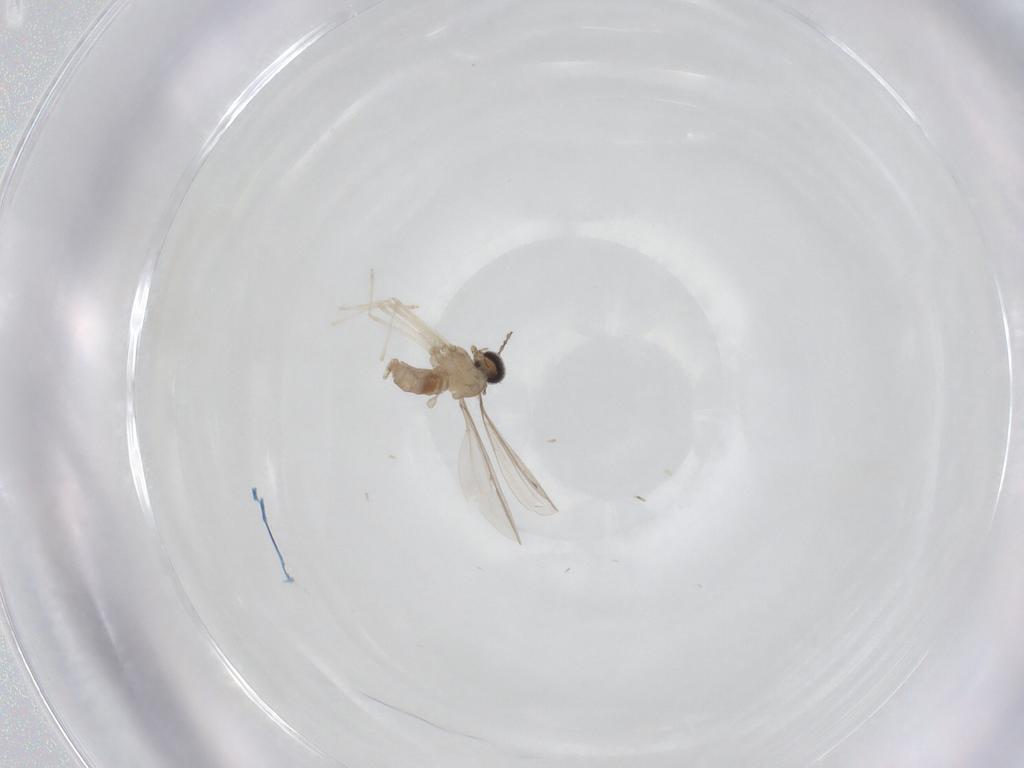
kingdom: Animalia
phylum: Arthropoda
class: Insecta
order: Diptera
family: Cecidomyiidae
